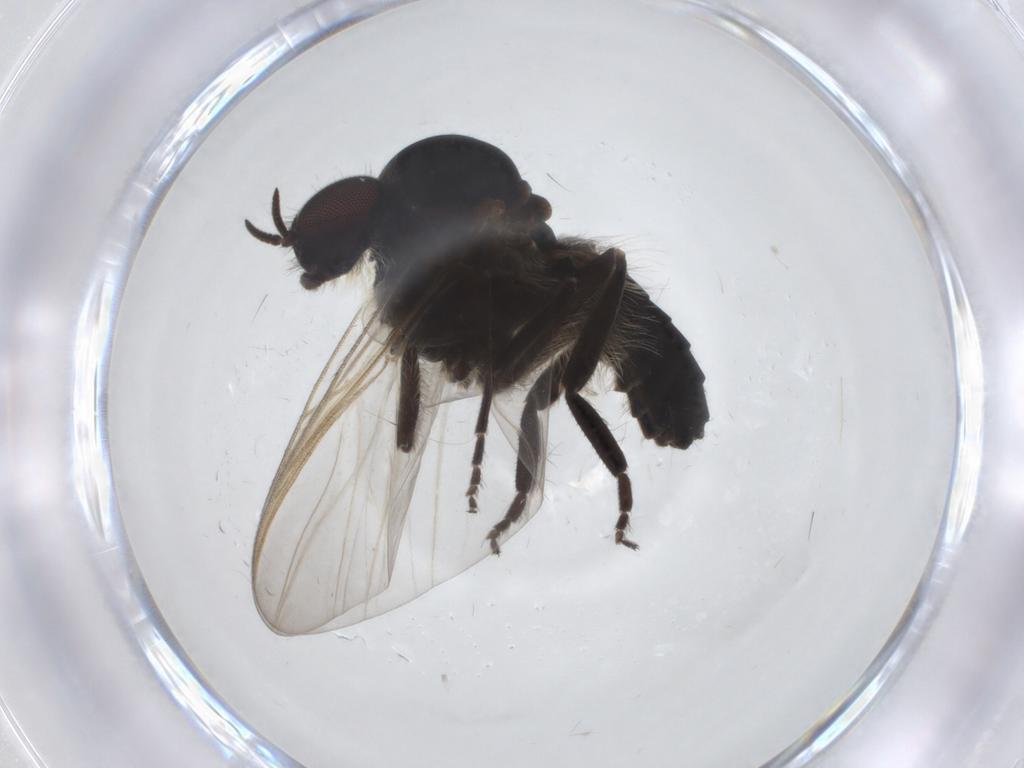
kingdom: Animalia
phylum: Arthropoda
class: Insecta
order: Diptera
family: Simuliidae
